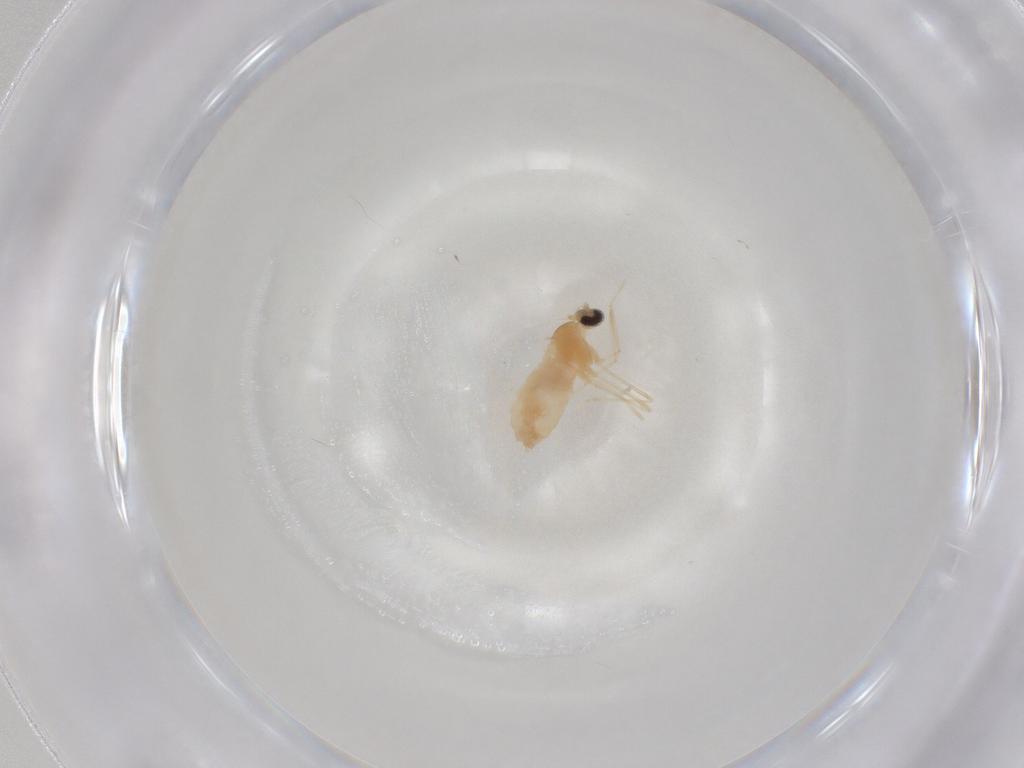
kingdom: Animalia
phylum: Arthropoda
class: Insecta
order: Diptera
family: Cecidomyiidae
